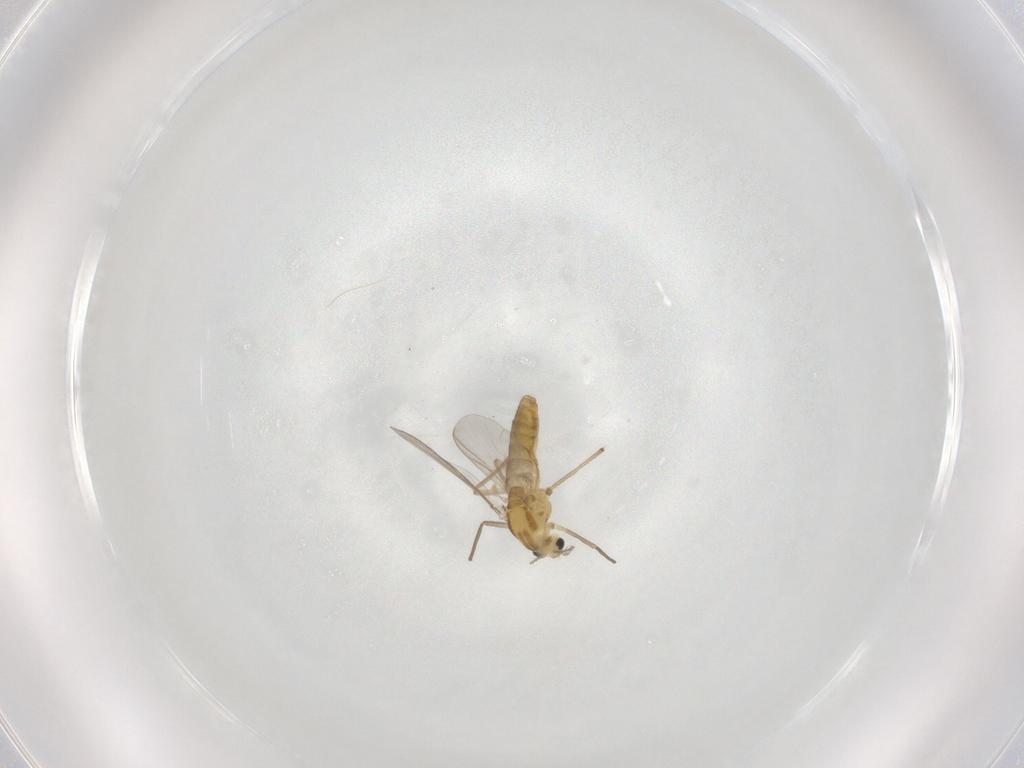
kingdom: Animalia
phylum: Arthropoda
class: Insecta
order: Diptera
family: Chironomidae
